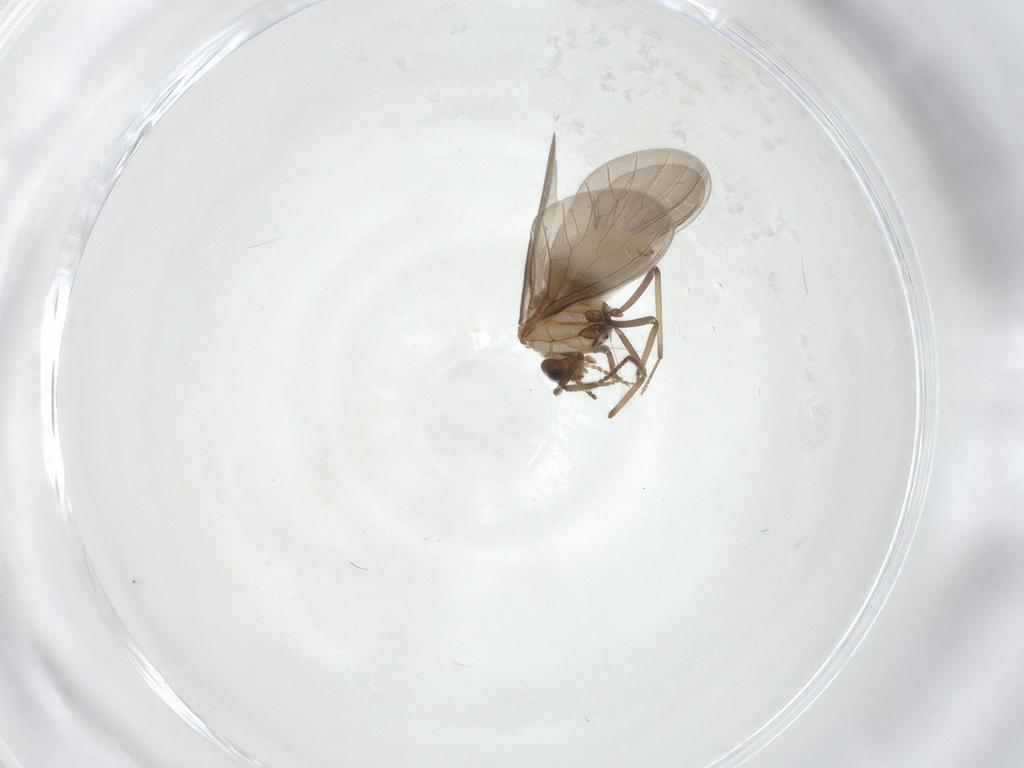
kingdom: Animalia
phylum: Arthropoda
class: Insecta
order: Neuroptera
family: Coniopterygidae
